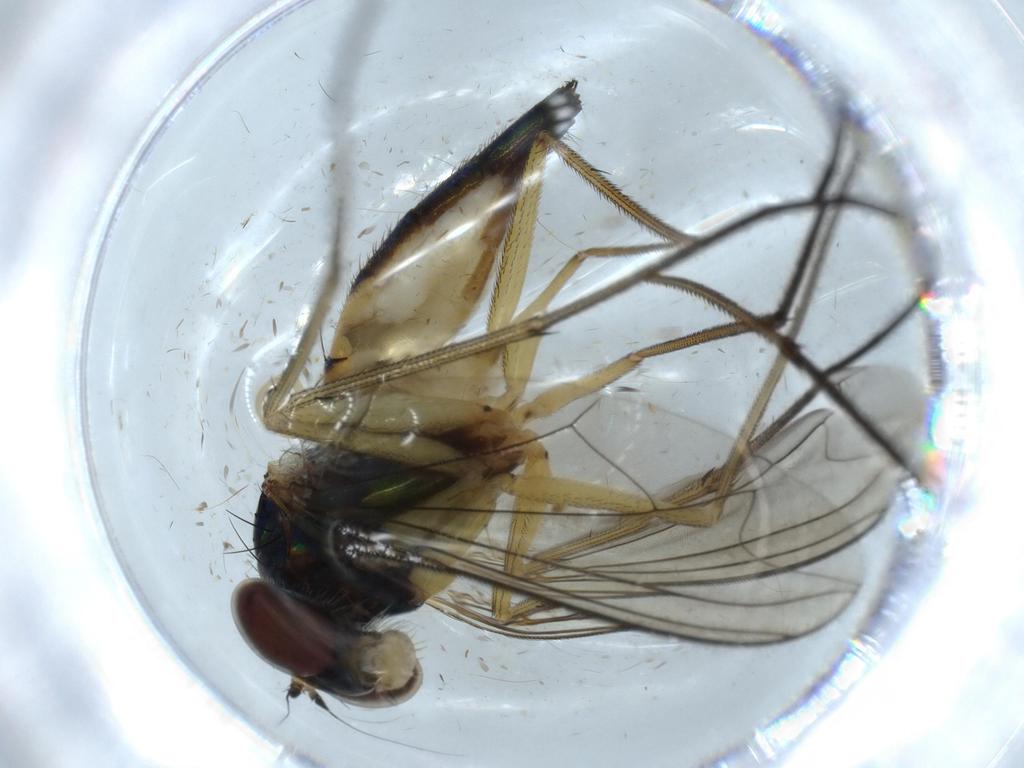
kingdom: Animalia
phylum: Arthropoda
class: Insecta
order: Diptera
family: Dolichopodidae
